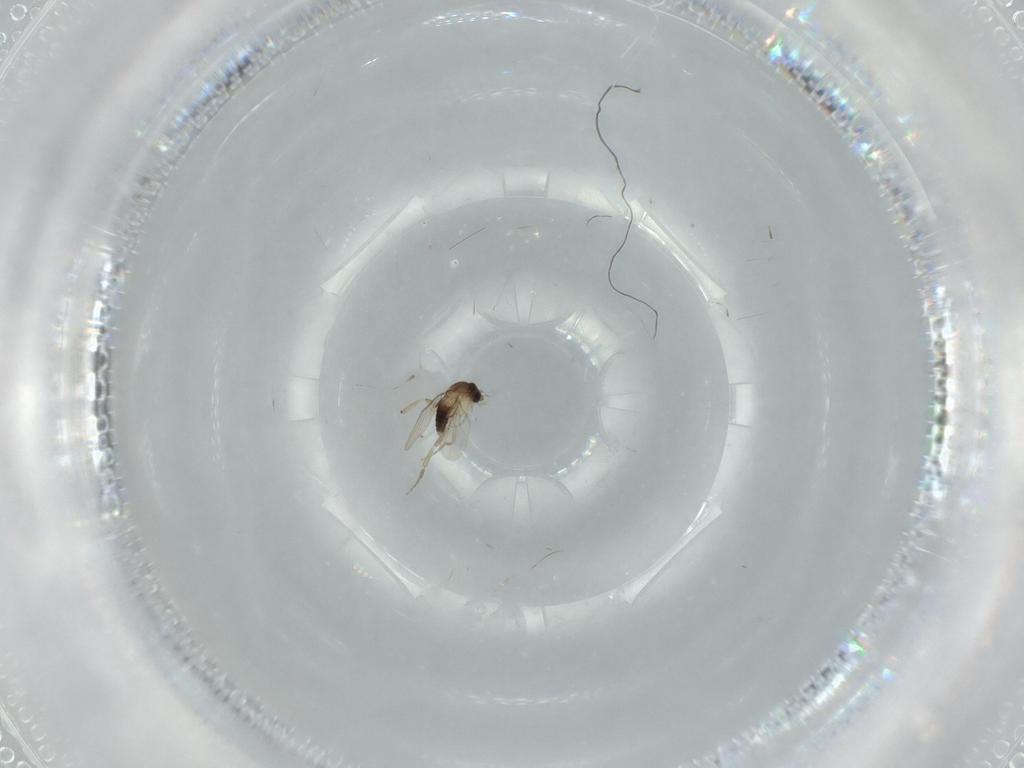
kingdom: Animalia
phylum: Arthropoda
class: Insecta
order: Diptera
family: Phoridae
